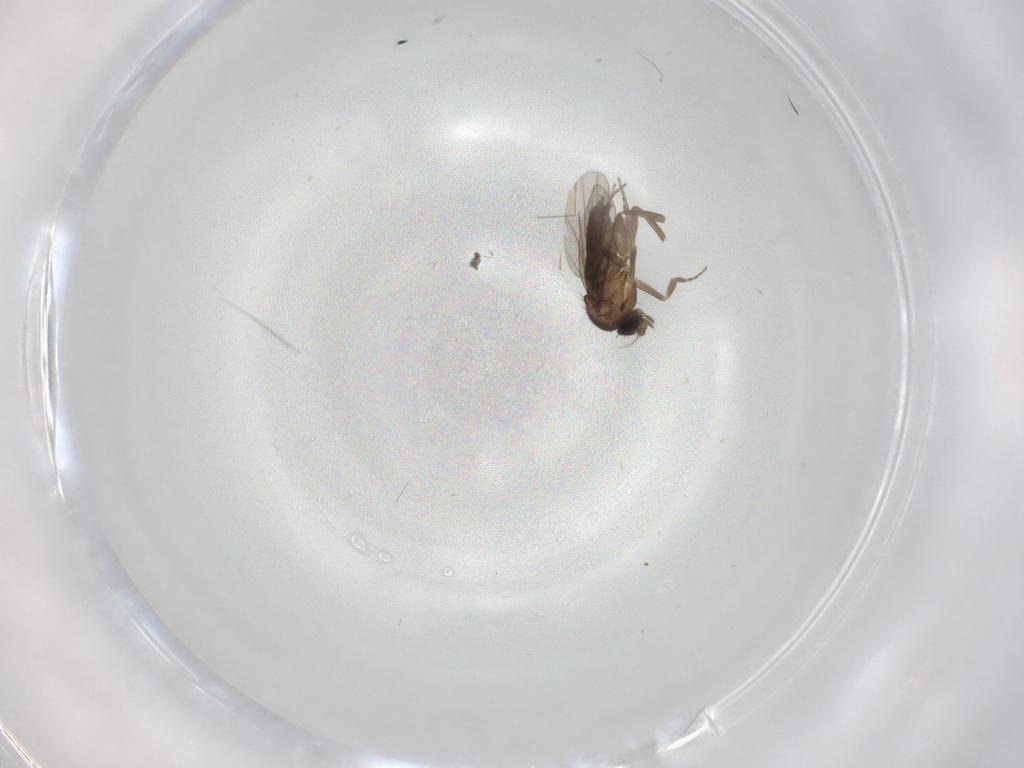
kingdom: Animalia
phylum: Arthropoda
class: Insecta
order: Diptera
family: Phoridae
